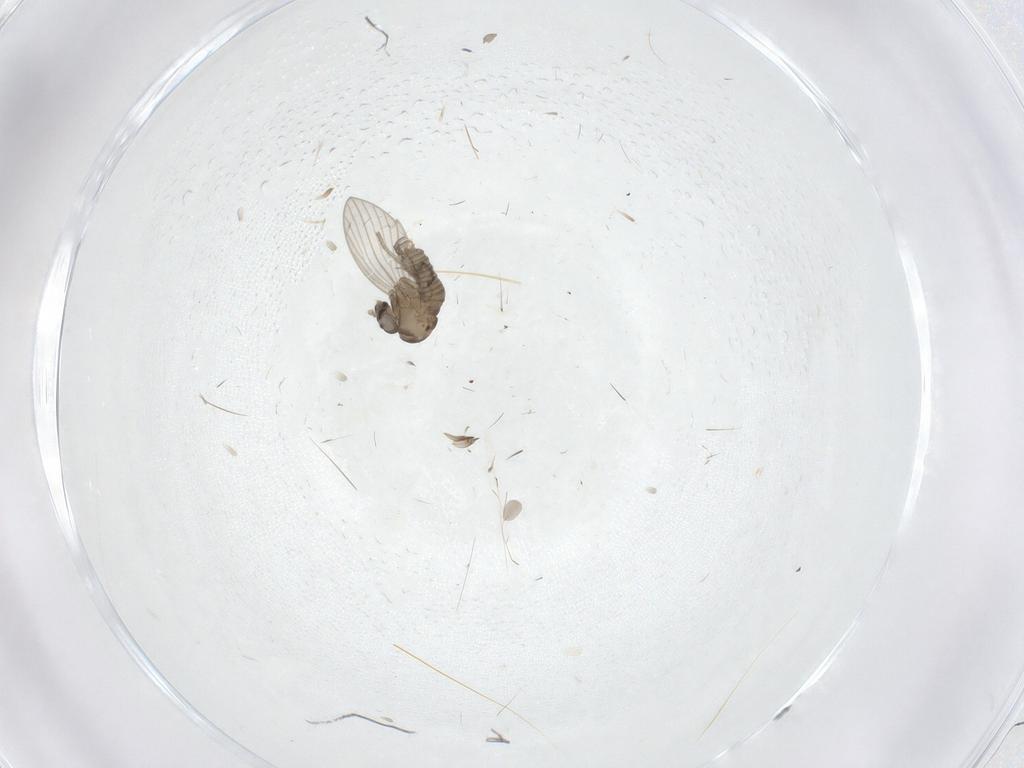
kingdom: Animalia
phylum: Arthropoda
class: Insecta
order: Diptera
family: Psychodidae
